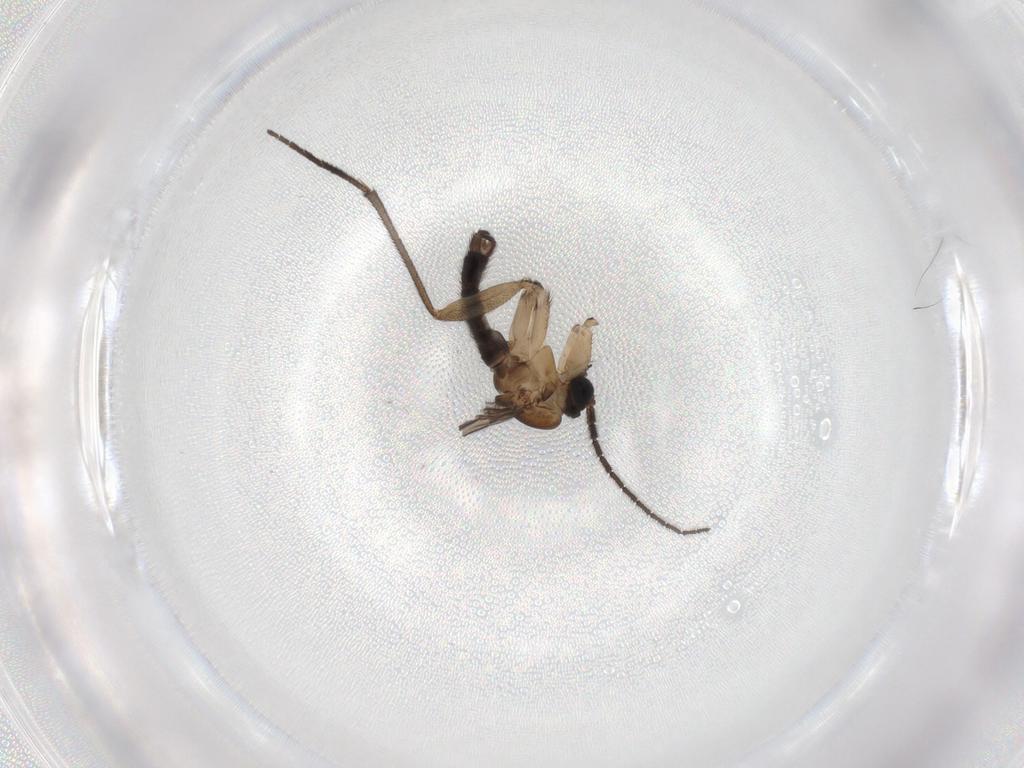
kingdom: Animalia
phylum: Arthropoda
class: Insecta
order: Diptera
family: Sciaridae
